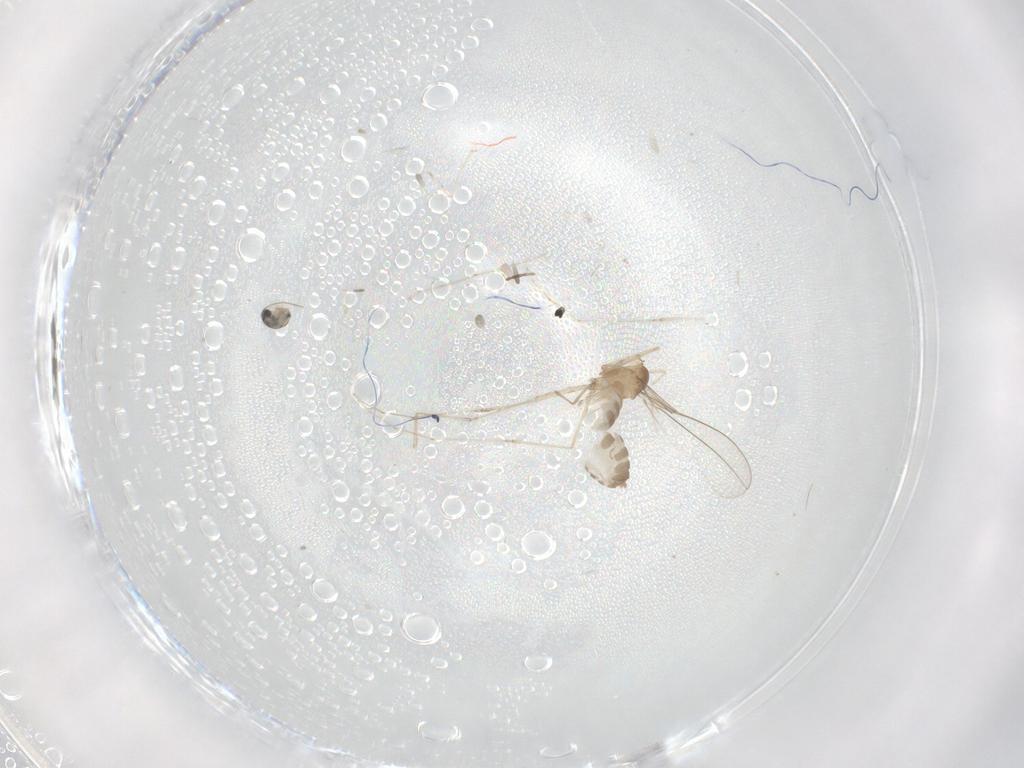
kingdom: Animalia
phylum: Arthropoda
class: Insecta
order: Diptera
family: Cecidomyiidae
